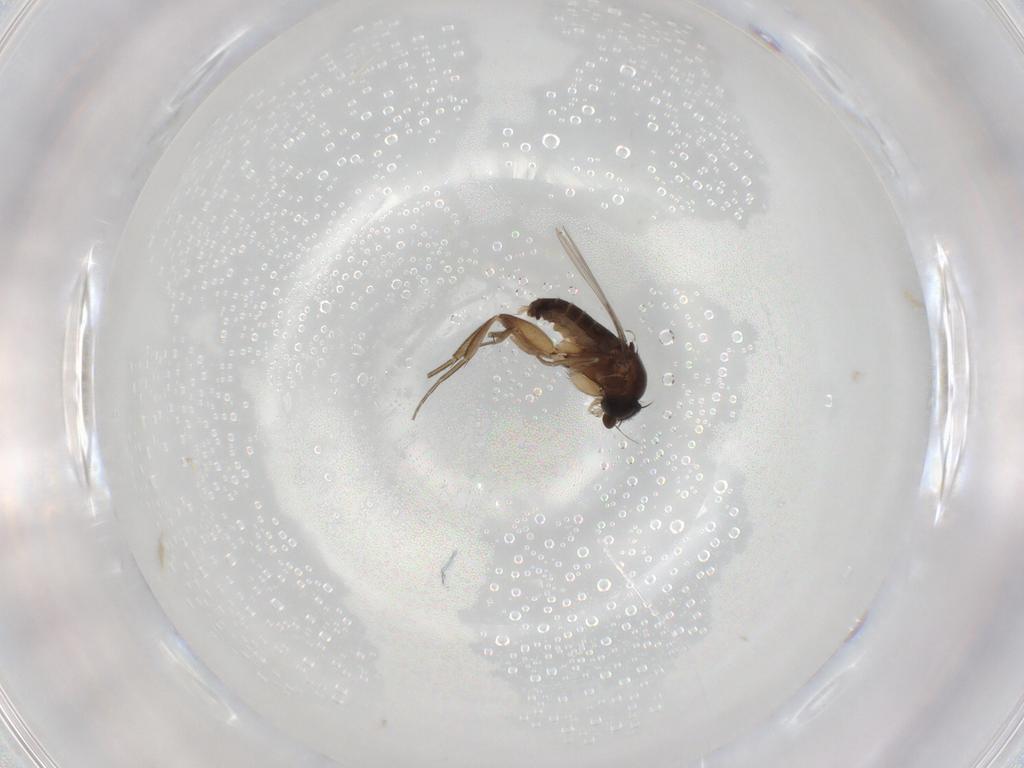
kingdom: Animalia
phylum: Arthropoda
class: Insecta
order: Diptera
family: Phoridae
